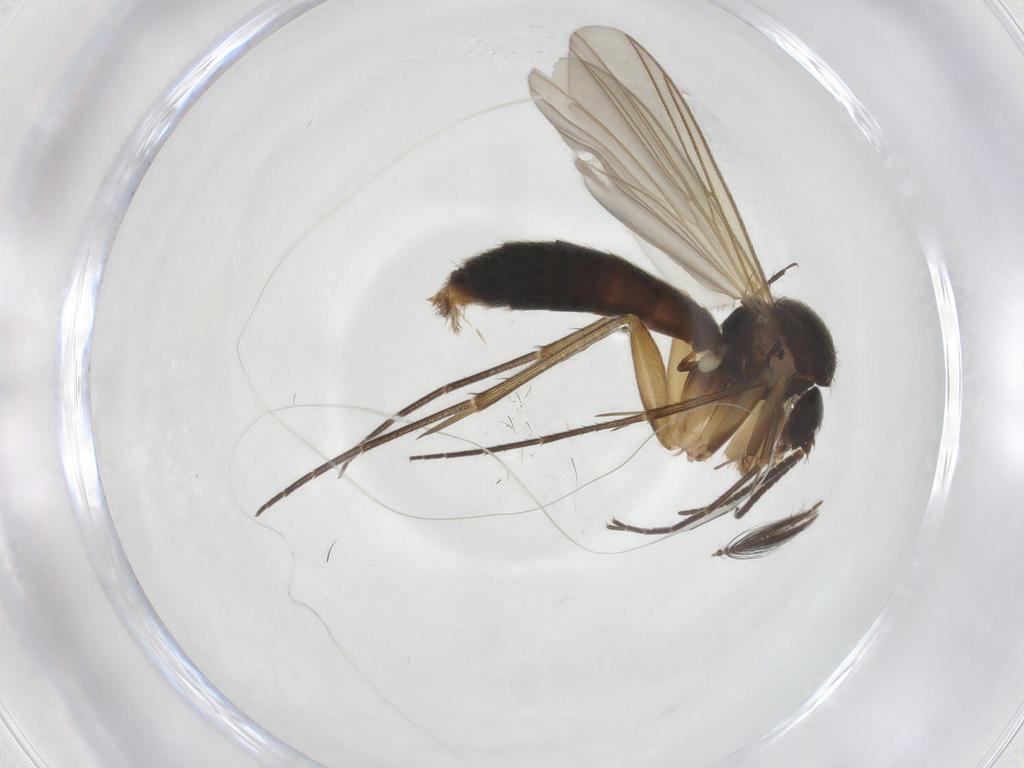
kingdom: Animalia
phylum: Arthropoda
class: Insecta
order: Diptera
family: Ceratopogonidae
